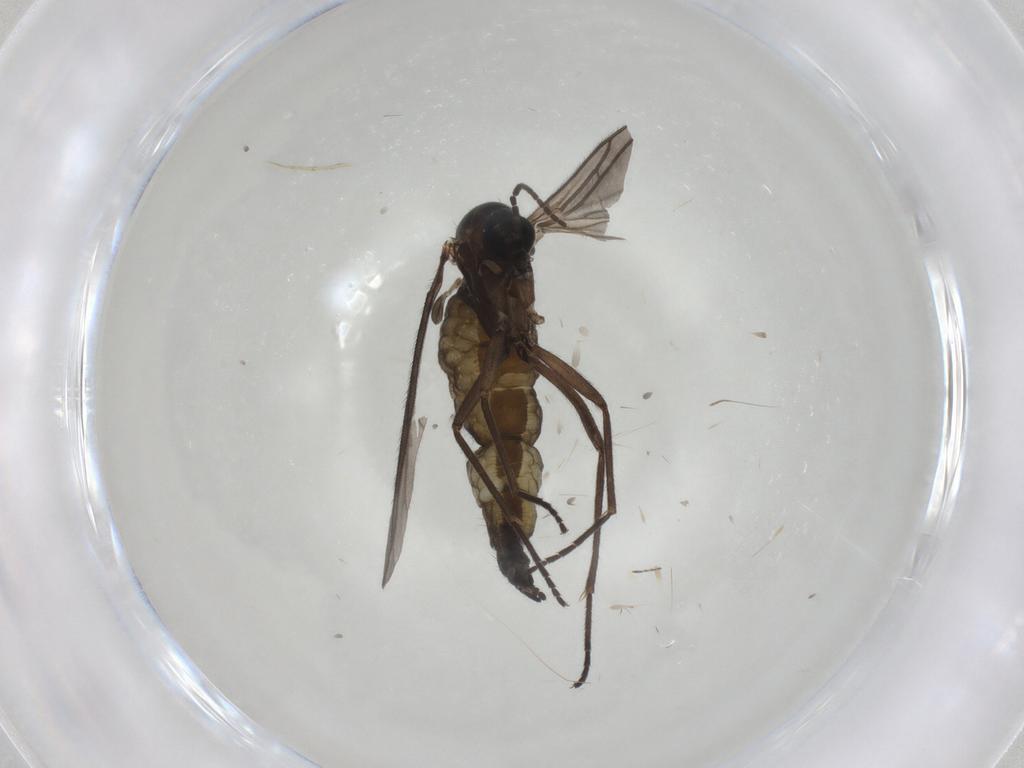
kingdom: Animalia
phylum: Arthropoda
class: Insecta
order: Diptera
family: Sciaridae
